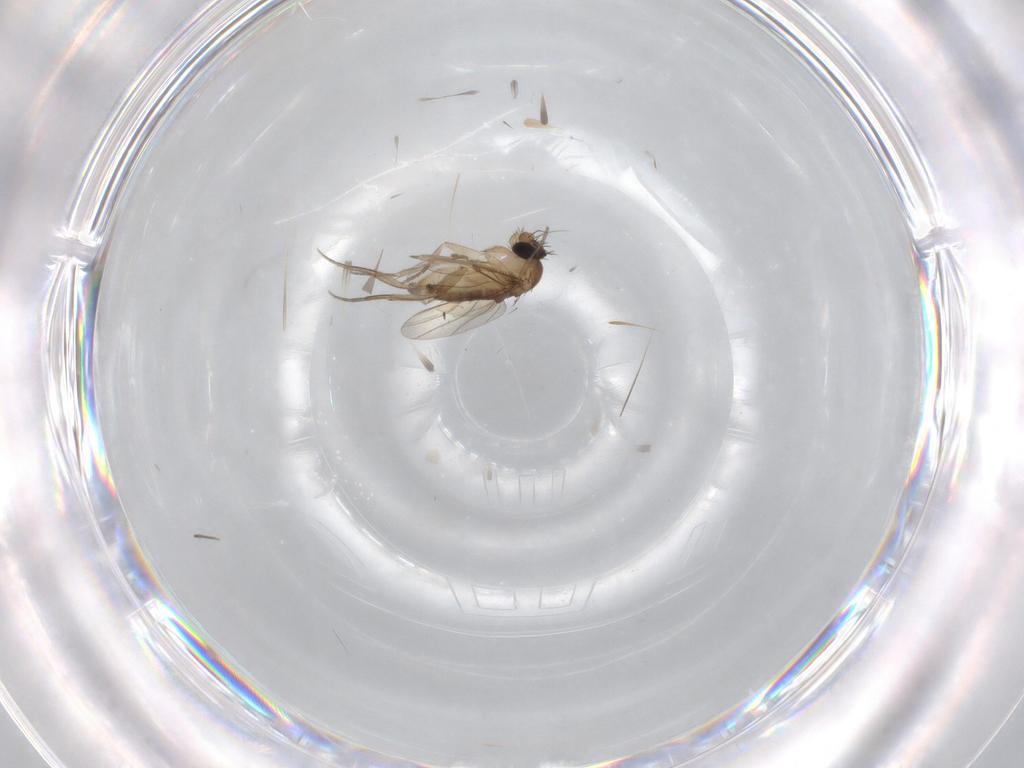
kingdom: Animalia
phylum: Arthropoda
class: Insecta
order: Diptera
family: Phoridae
